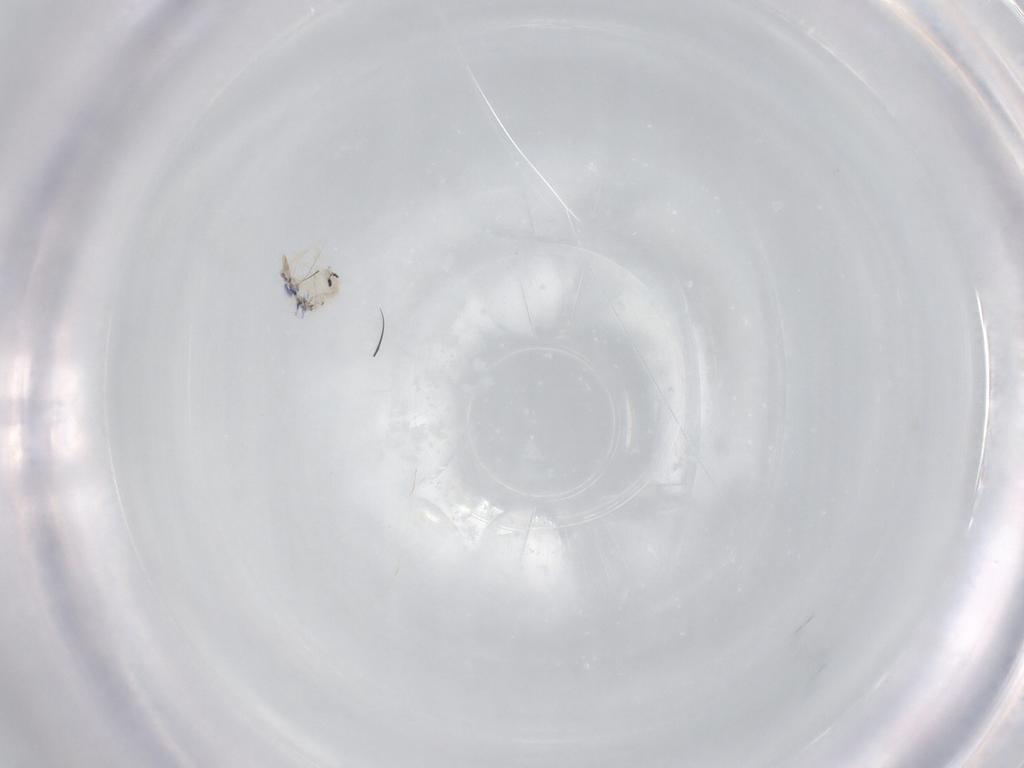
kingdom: Animalia
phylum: Arthropoda
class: Collembola
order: Entomobryomorpha
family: Entomobryidae
